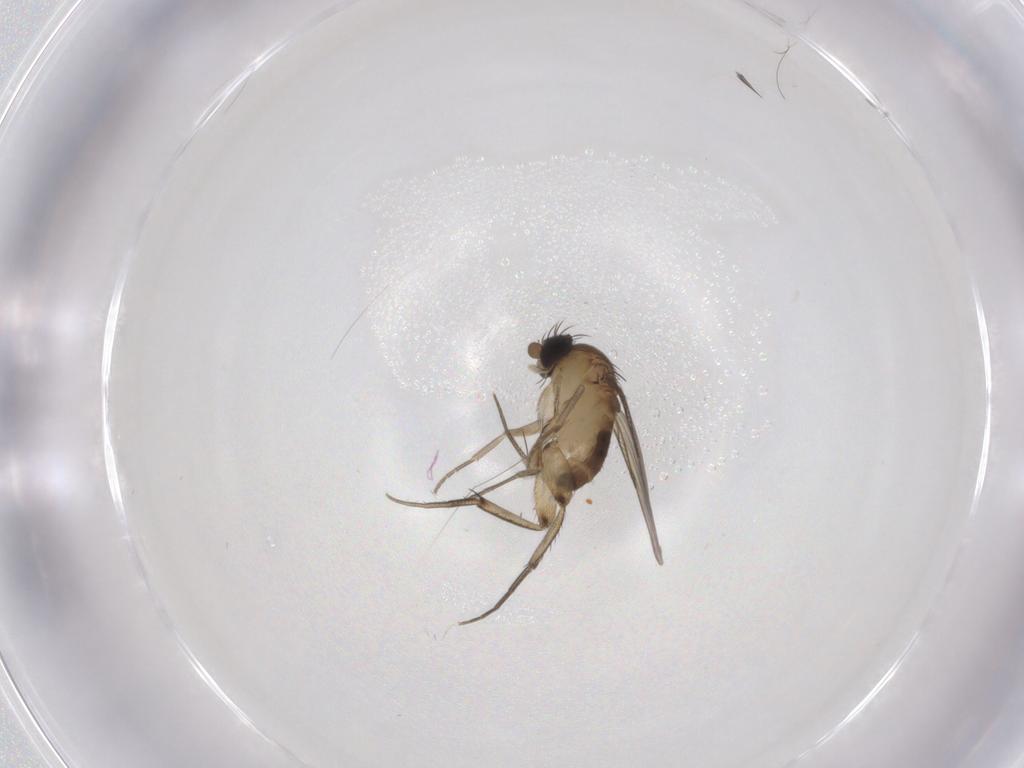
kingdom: Animalia
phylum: Arthropoda
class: Insecta
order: Diptera
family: Phoridae
